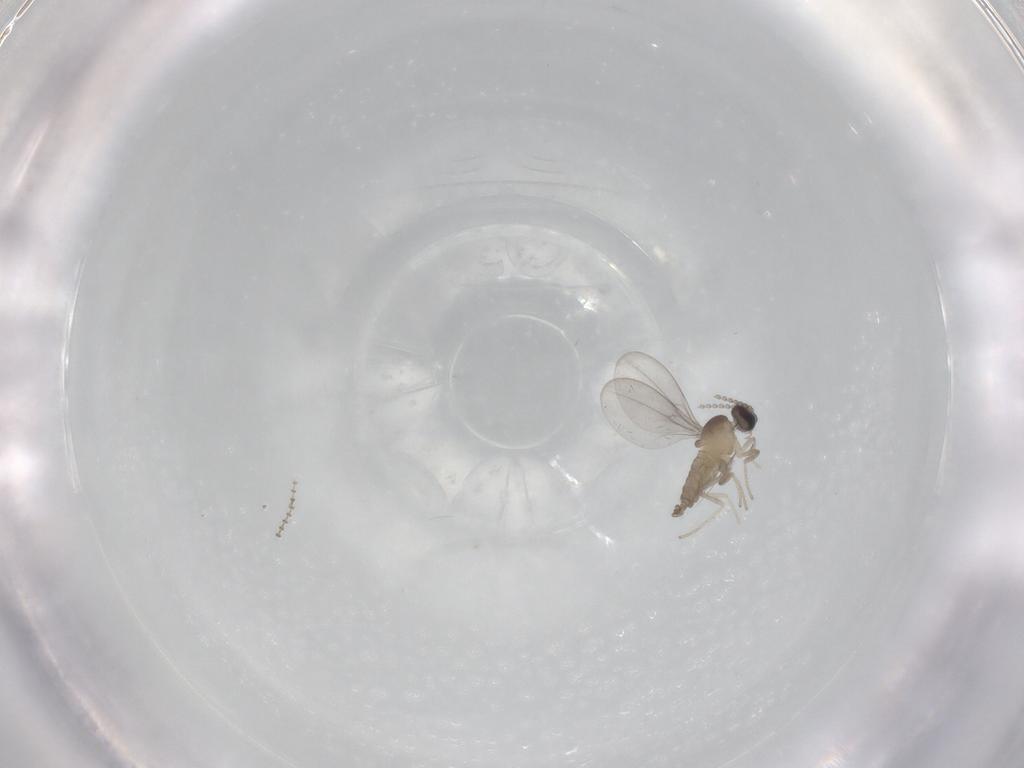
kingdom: Animalia
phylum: Arthropoda
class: Insecta
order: Diptera
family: Cecidomyiidae
